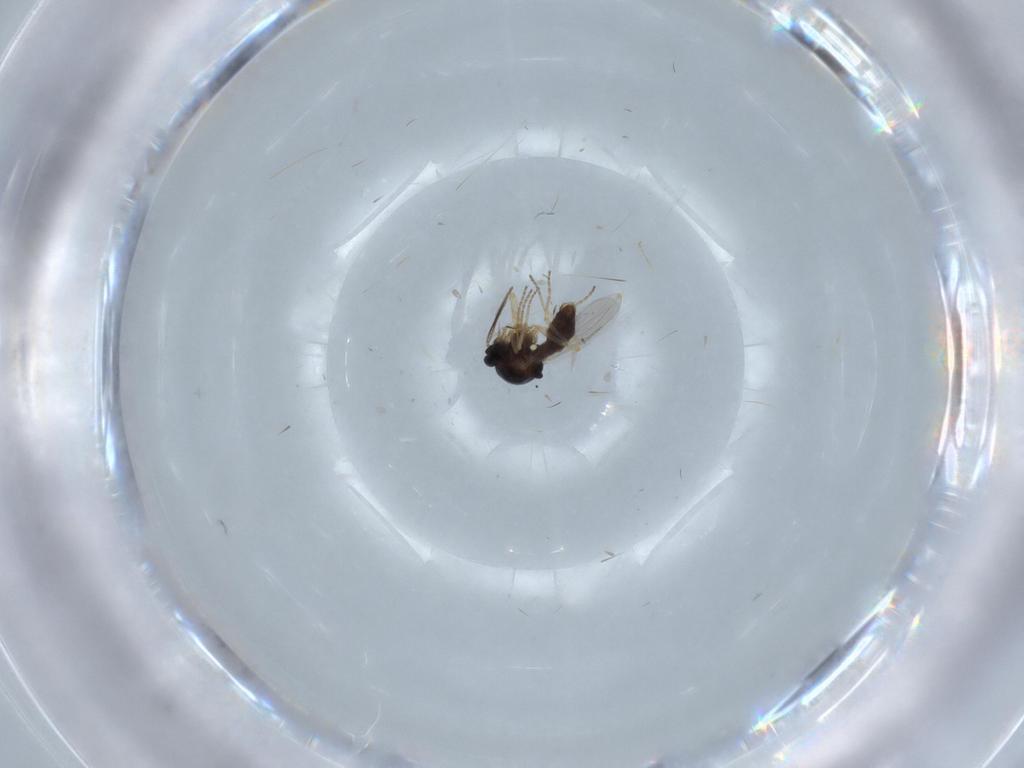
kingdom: Animalia
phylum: Arthropoda
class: Insecta
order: Diptera
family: Ceratopogonidae
